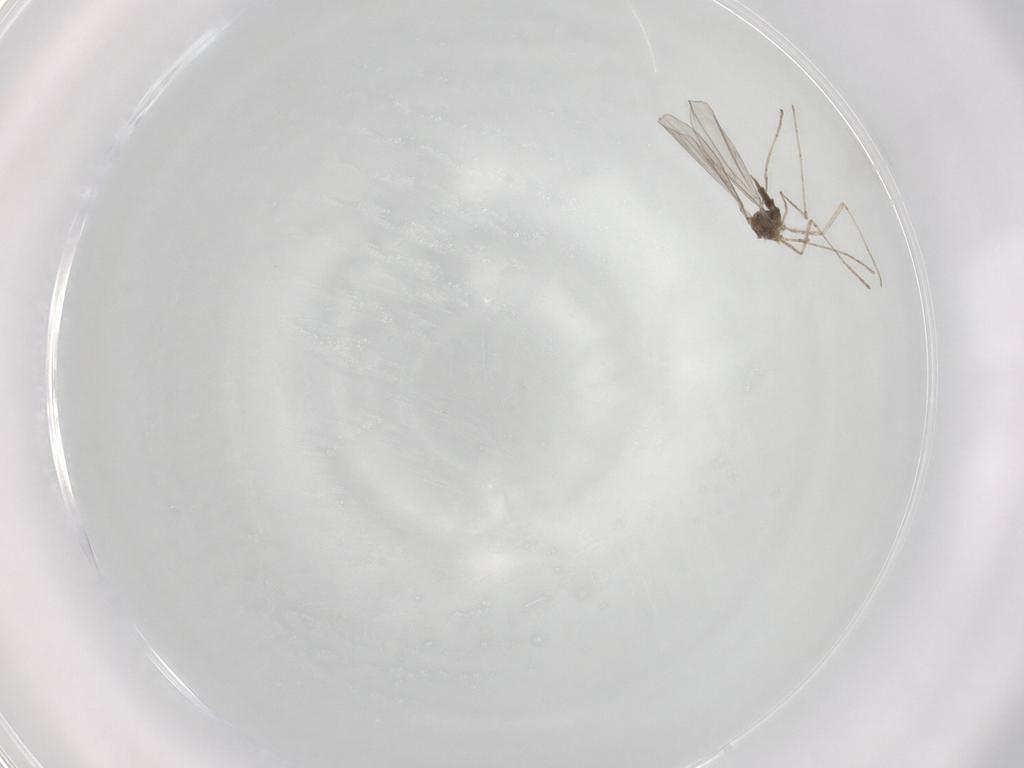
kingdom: Animalia
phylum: Arthropoda
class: Insecta
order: Diptera
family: Cecidomyiidae
